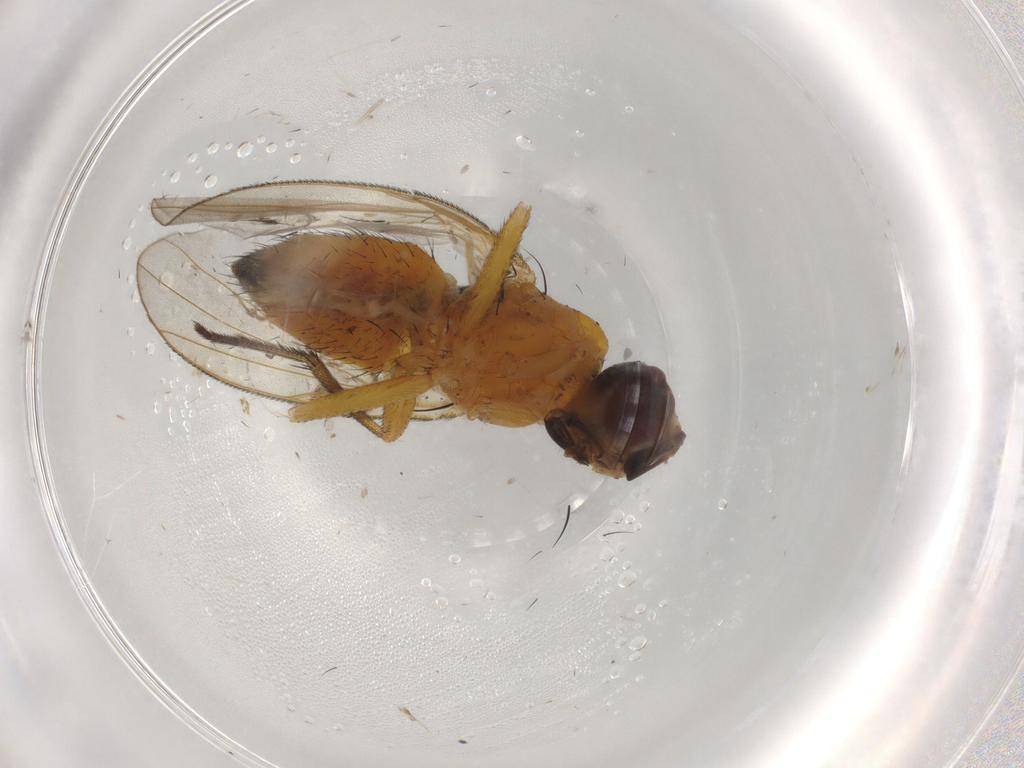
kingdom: Animalia
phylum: Arthropoda
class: Insecta
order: Diptera
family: Muscidae
